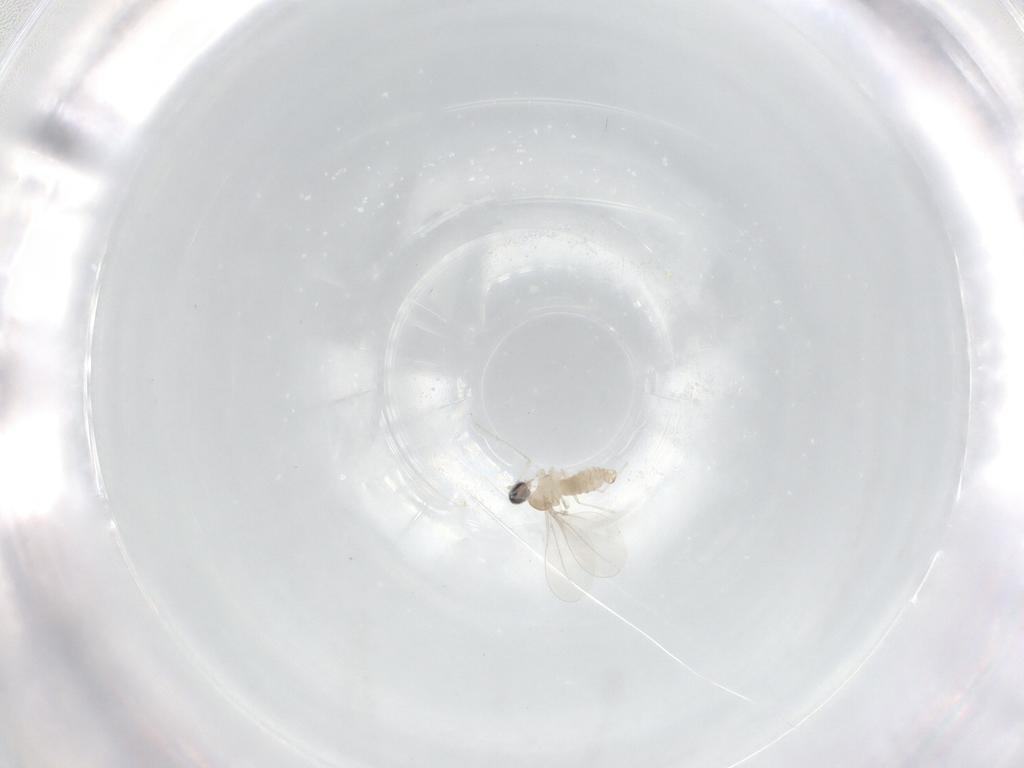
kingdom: Animalia
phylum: Arthropoda
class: Insecta
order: Diptera
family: Cecidomyiidae
